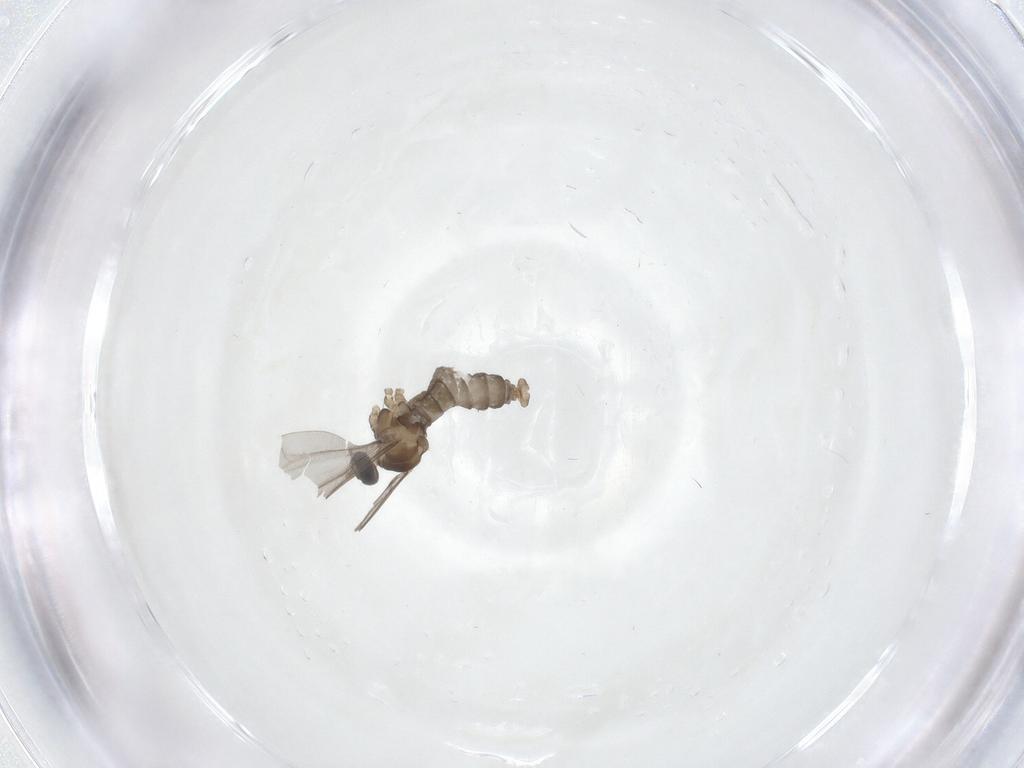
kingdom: Animalia
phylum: Arthropoda
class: Insecta
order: Diptera
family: Cecidomyiidae
